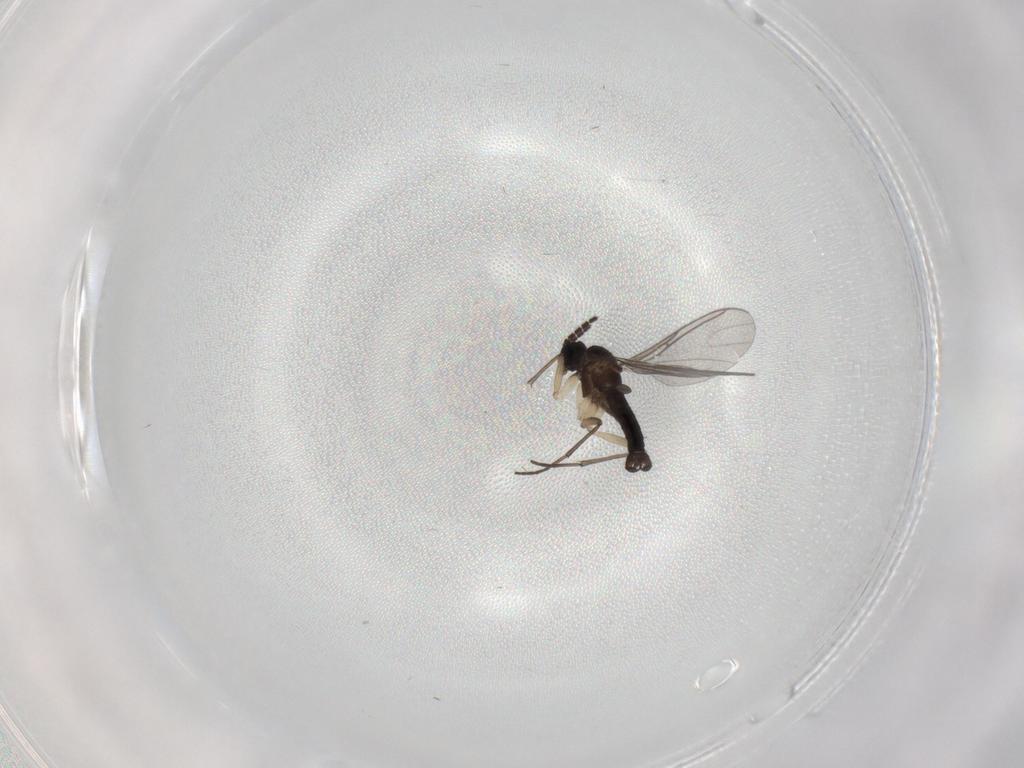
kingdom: Animalia
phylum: Arthropoda
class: Insecta
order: Diptera
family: Sciaridae
